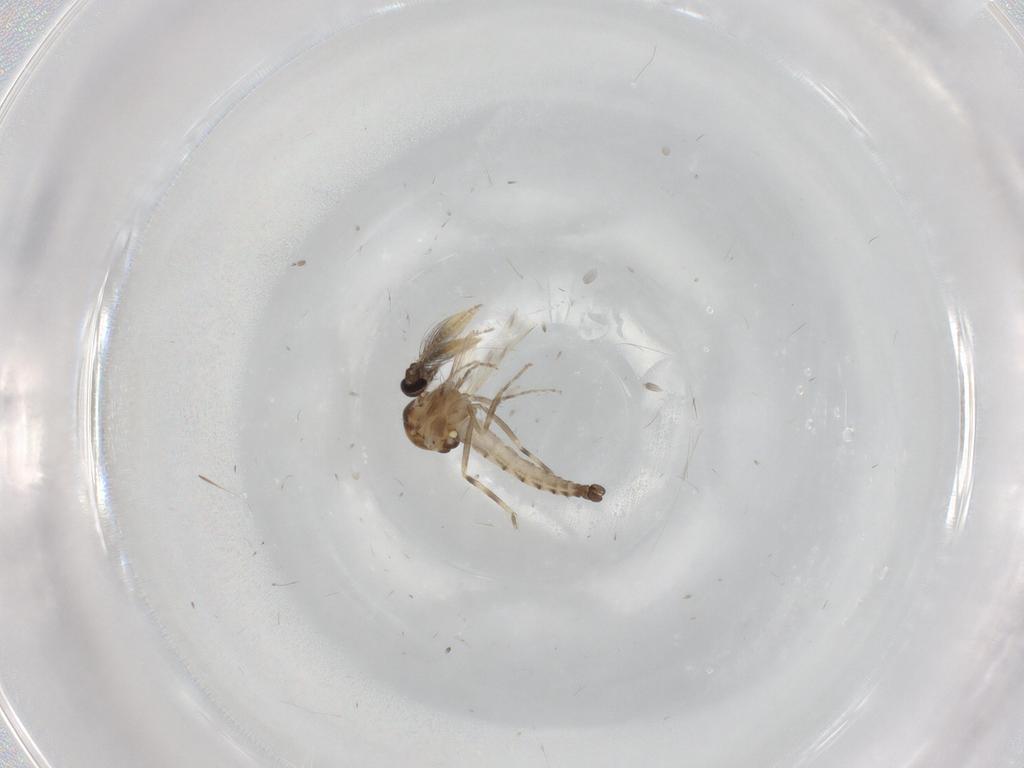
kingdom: Animalia
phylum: Arthropoda
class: Insecta
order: Diptera
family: Ceratopogonidae
